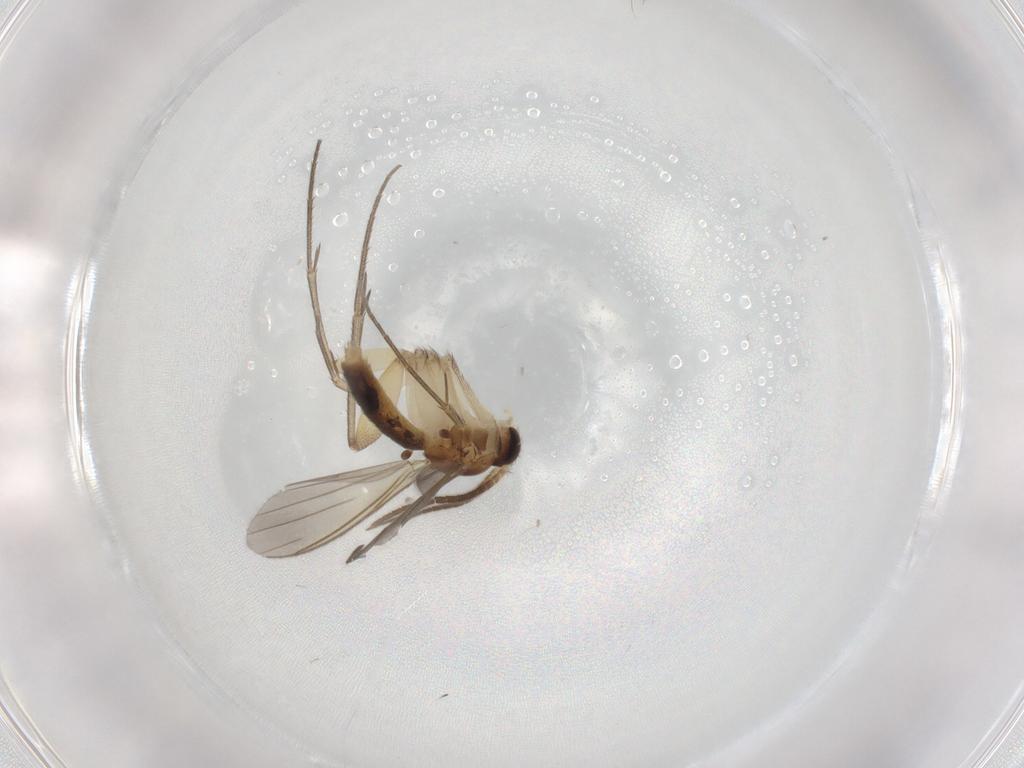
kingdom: Animalia
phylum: Arthropoda
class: Insecta
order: Diptera
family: Mycetophilidae
